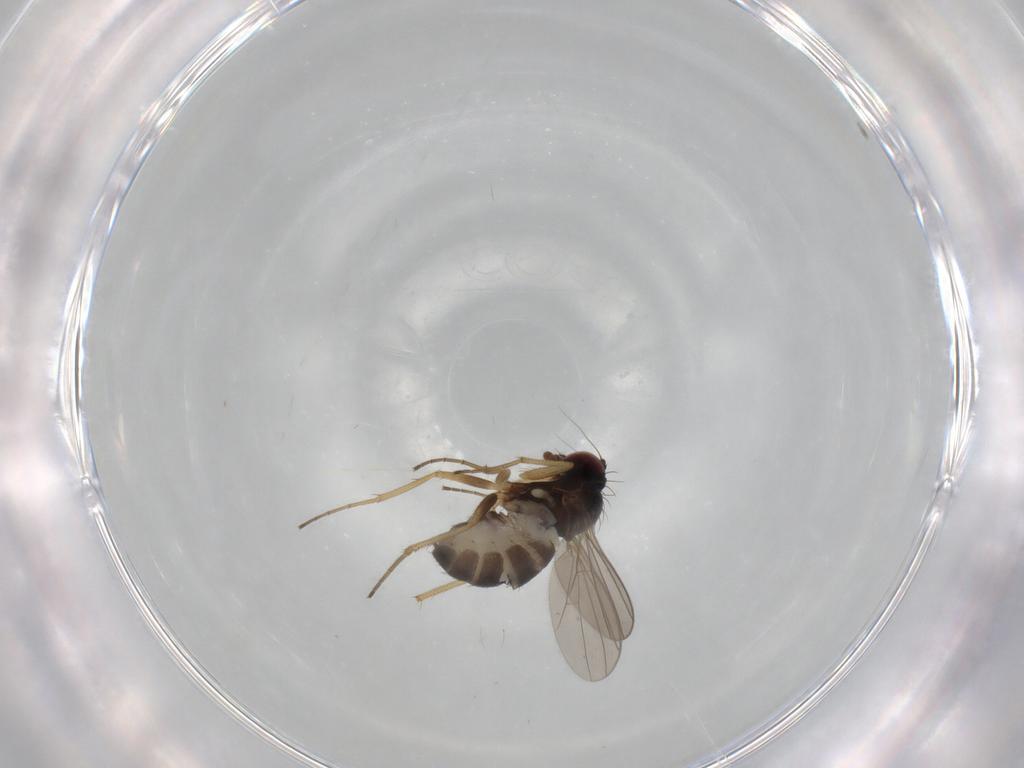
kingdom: Animalia
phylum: Arthropoda
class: Insecta
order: Diptera
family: Dolichopodidae
